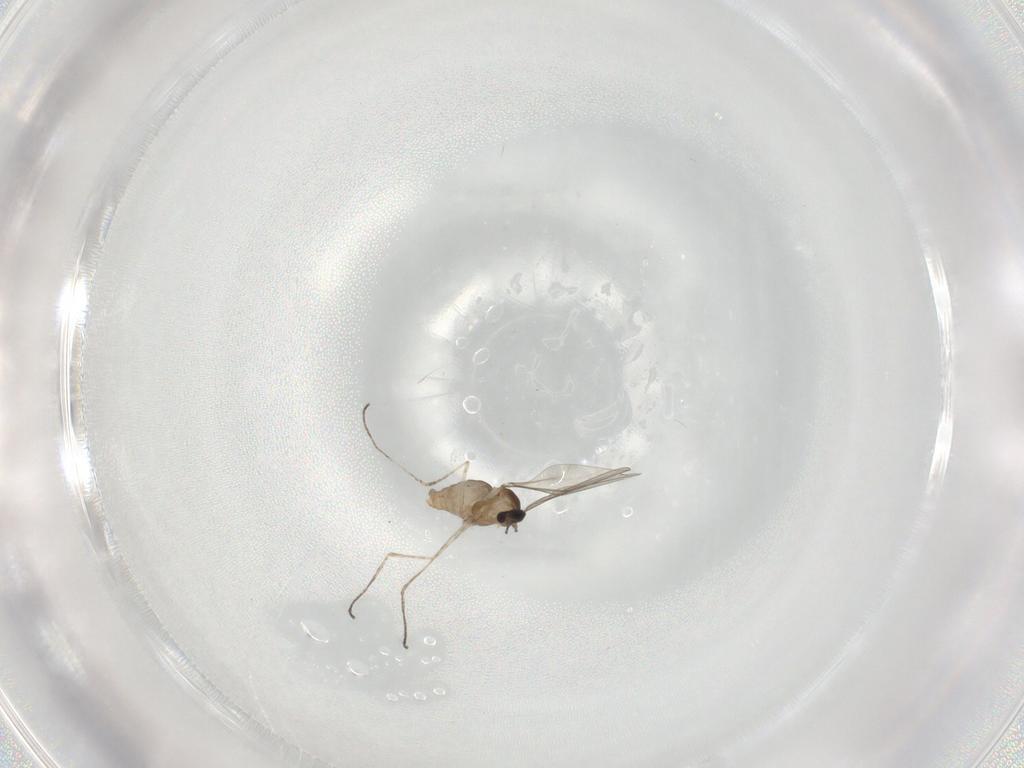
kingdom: Animalia
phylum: Arthropoda
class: Insecta
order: Diptera
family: Cecidomyiidae
